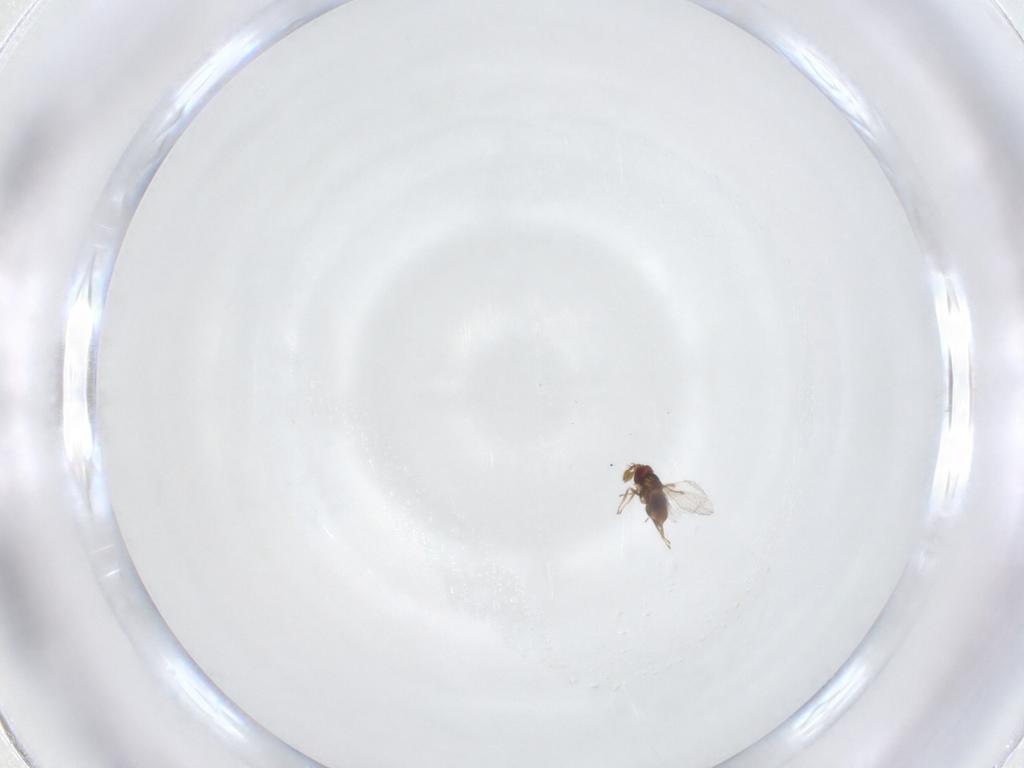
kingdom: Animalia
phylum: Arthropoda
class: Insecta
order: Hymenoptera
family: Agaonidae
